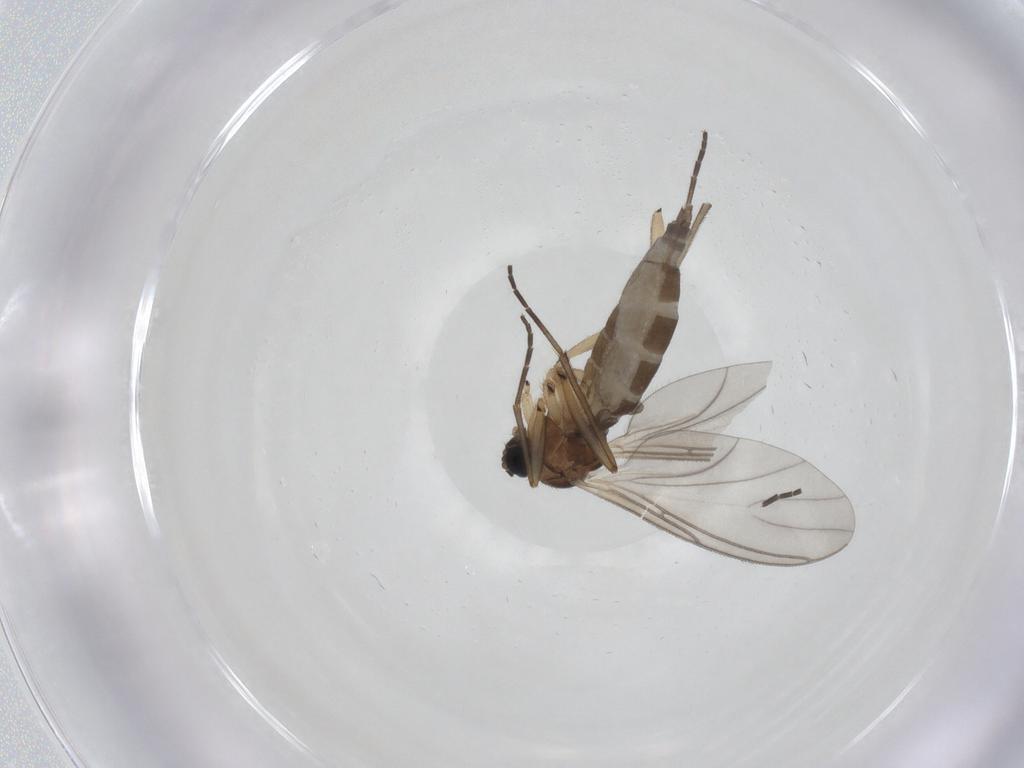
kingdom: Animalia
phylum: Arthropoda
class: Insecta
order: Diptera
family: Sciaridae
